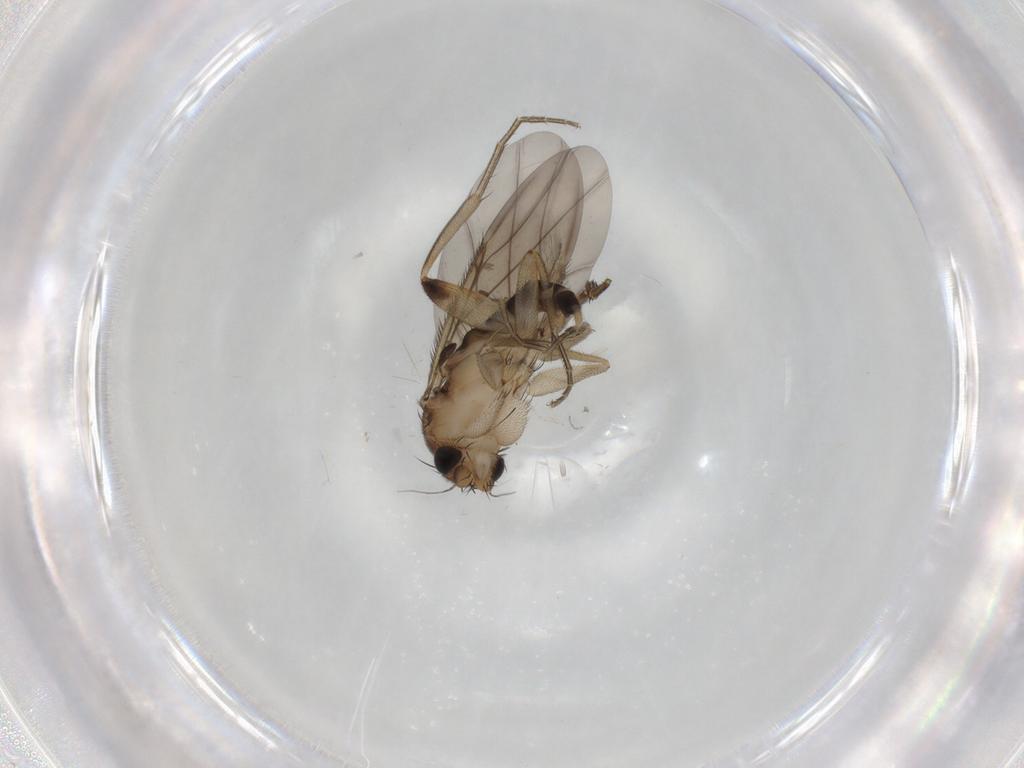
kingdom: Animalia
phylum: Arthropoda
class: Insecta
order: Diptera
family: Phoridae
